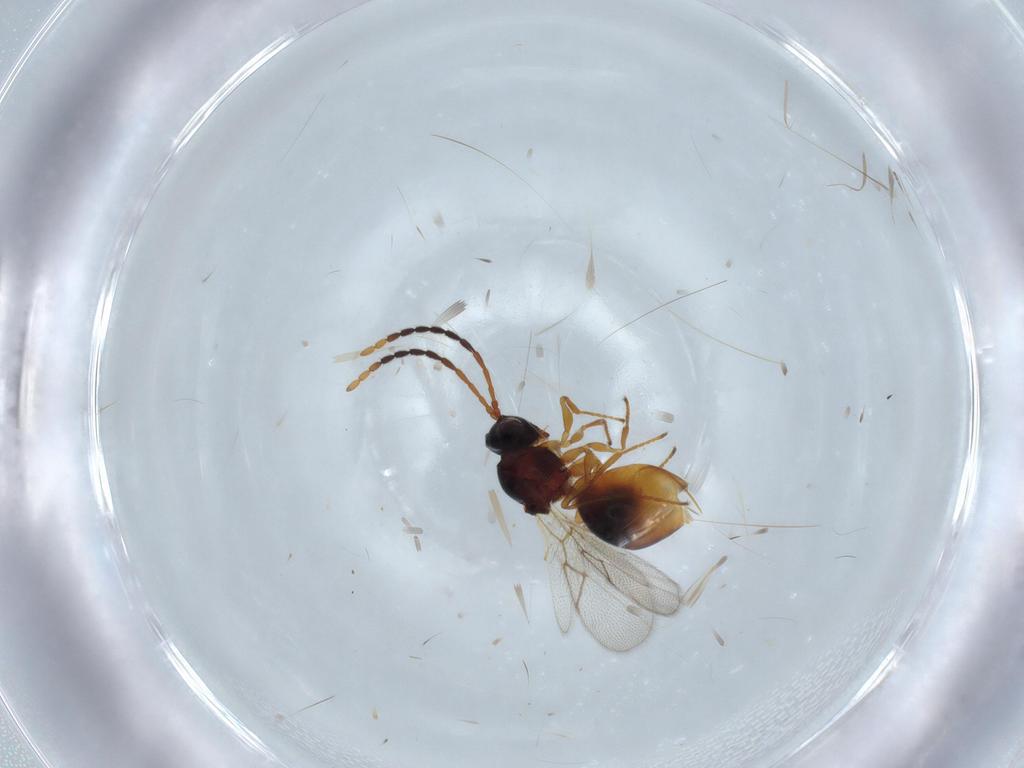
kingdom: Animalia
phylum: Arthropoda
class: Insecta
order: Hymenoptera
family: Figitidae
